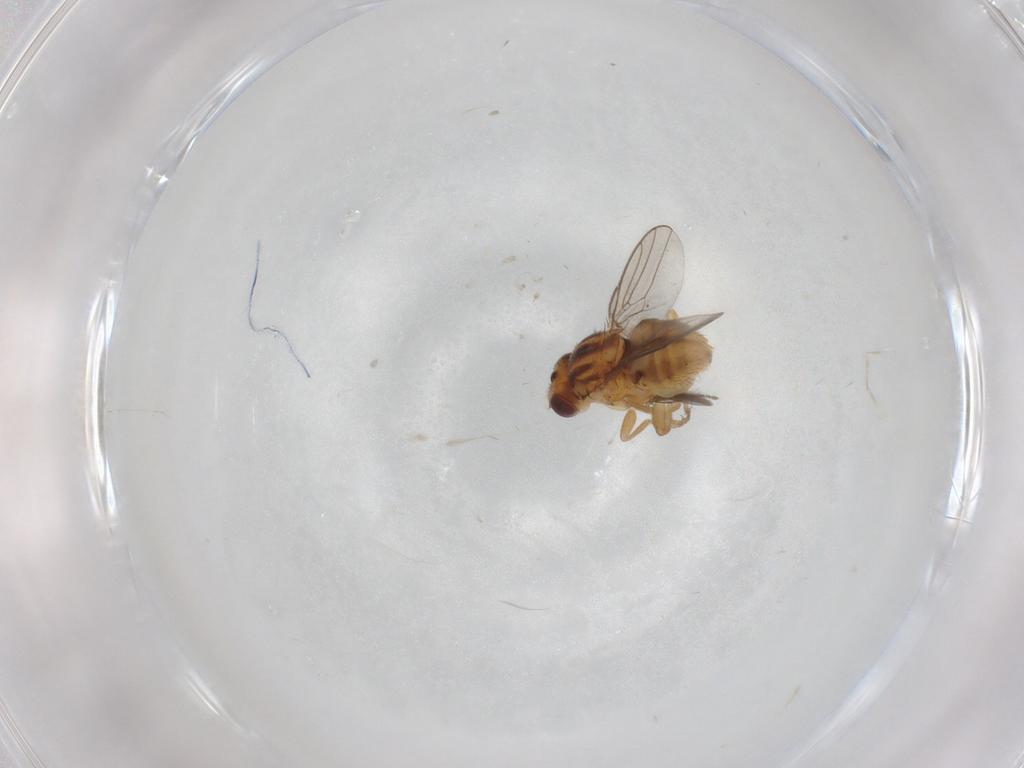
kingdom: Animalia
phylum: Arthropoda
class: Insecta
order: Diptera
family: Chloropidae
